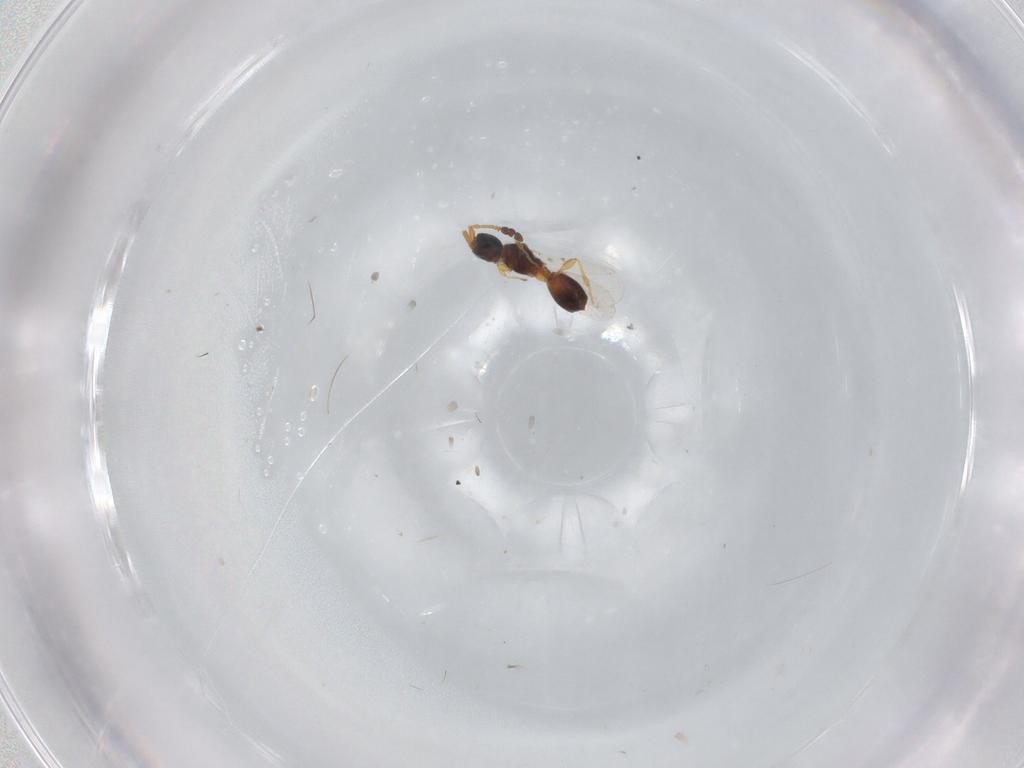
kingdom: Animalia
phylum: Arthropoda
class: Insecta
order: Hymenoptera
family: Diapriidae
